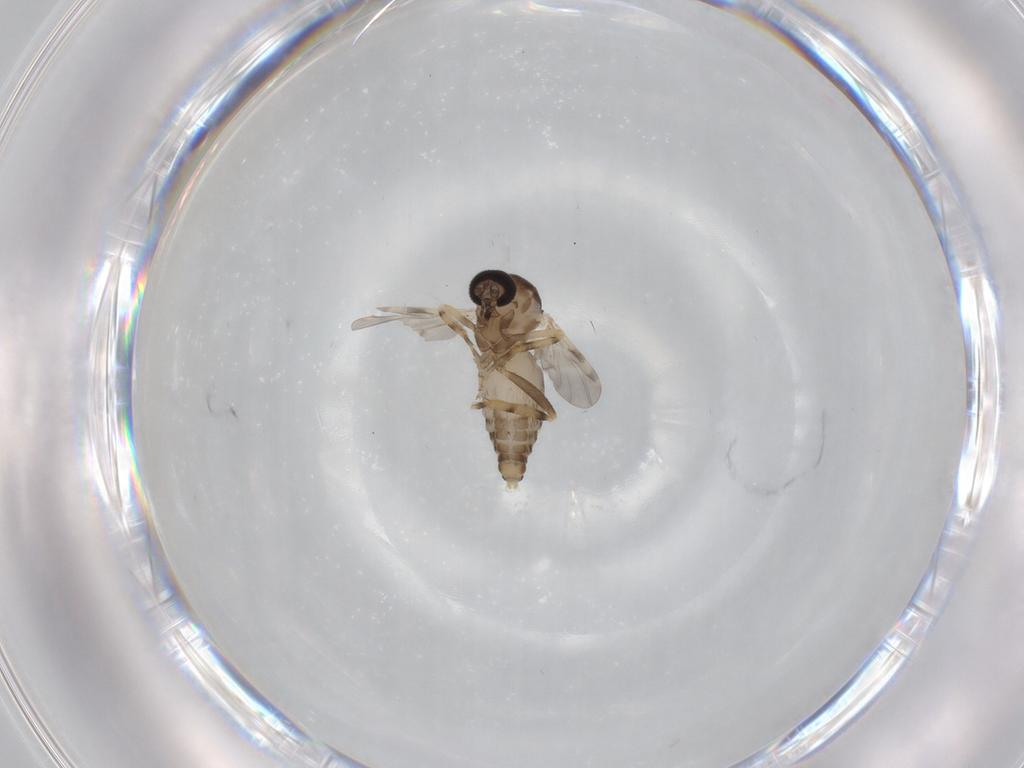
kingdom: Animalia
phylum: Arthropoda
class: Insecta
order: Diptera
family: Ceratopogonidae
